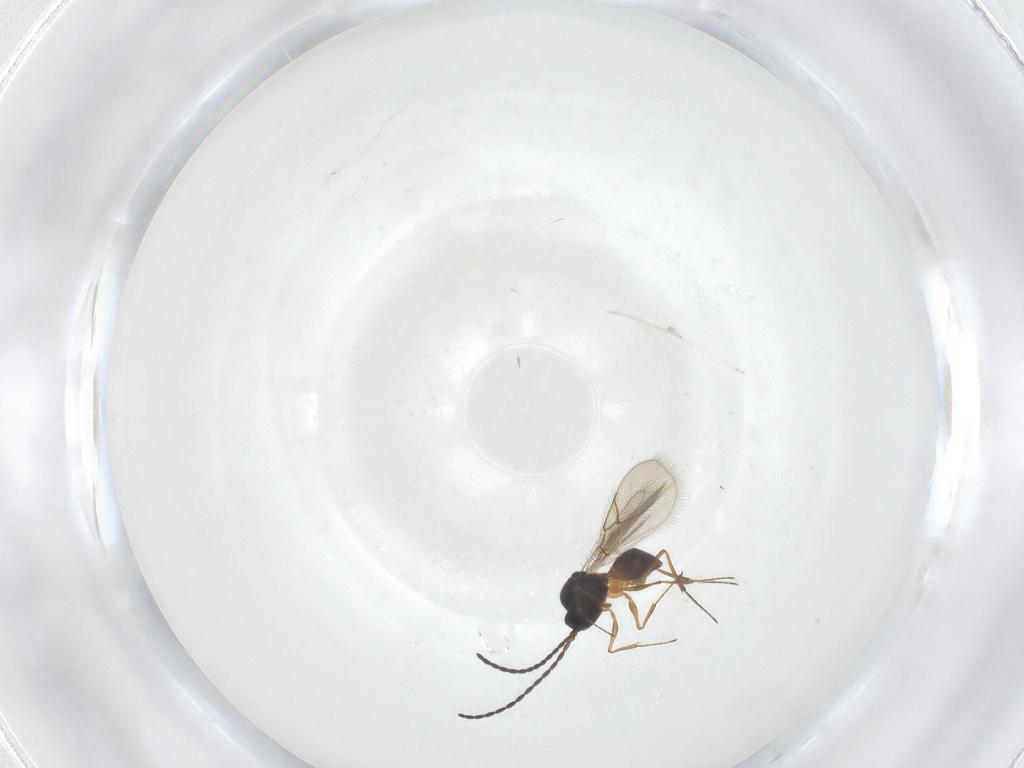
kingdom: Animalia
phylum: Arthropoda
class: Insecta
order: Hymenoptera
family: Figitidae
